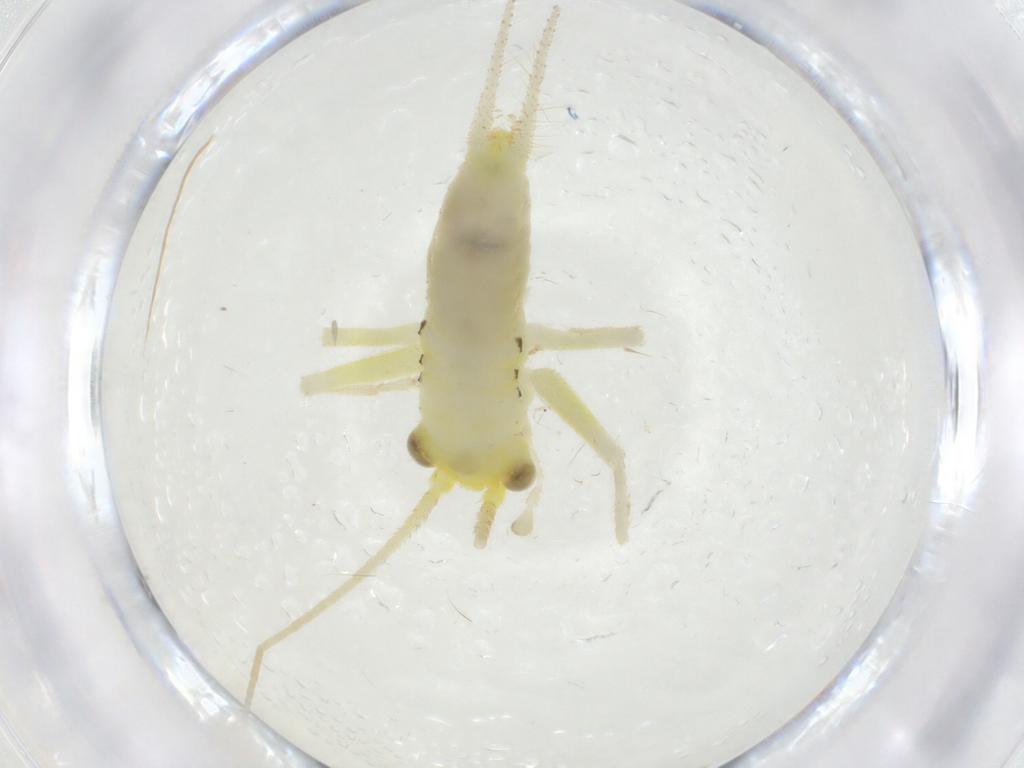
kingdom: Animalia
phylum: Arthropoda
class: Insecta
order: Orthoptera
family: Trigonidiidae
